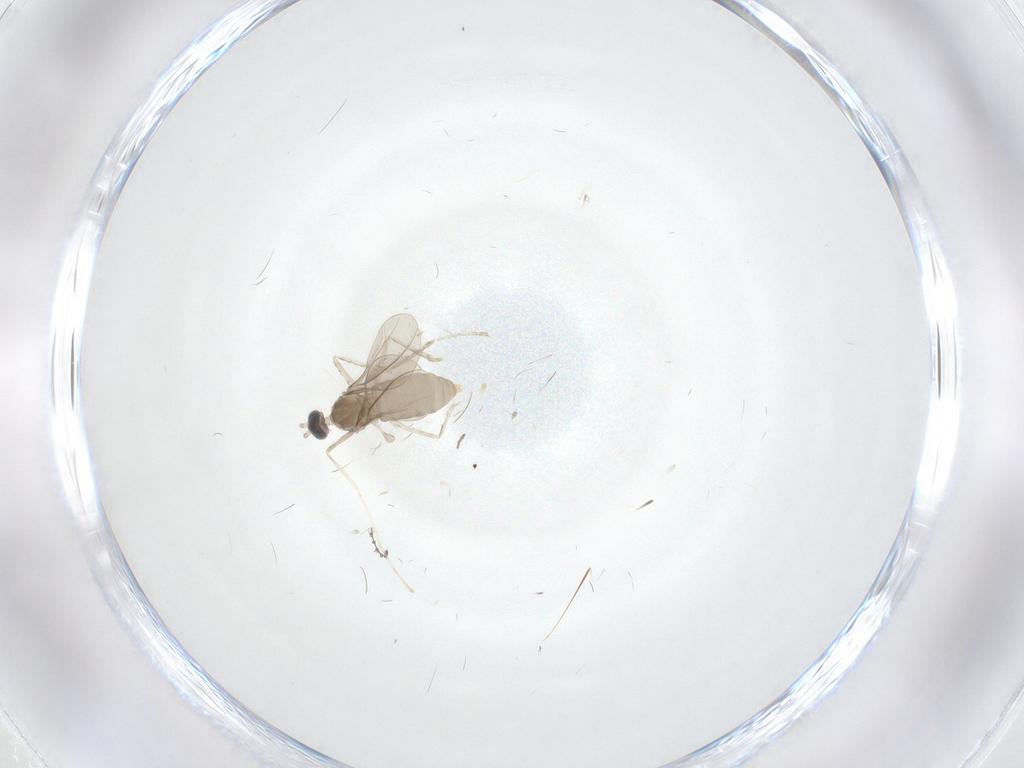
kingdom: Animalia
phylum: Arthropoda
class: Insecta
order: Diptera
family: Cecidomyiidae
